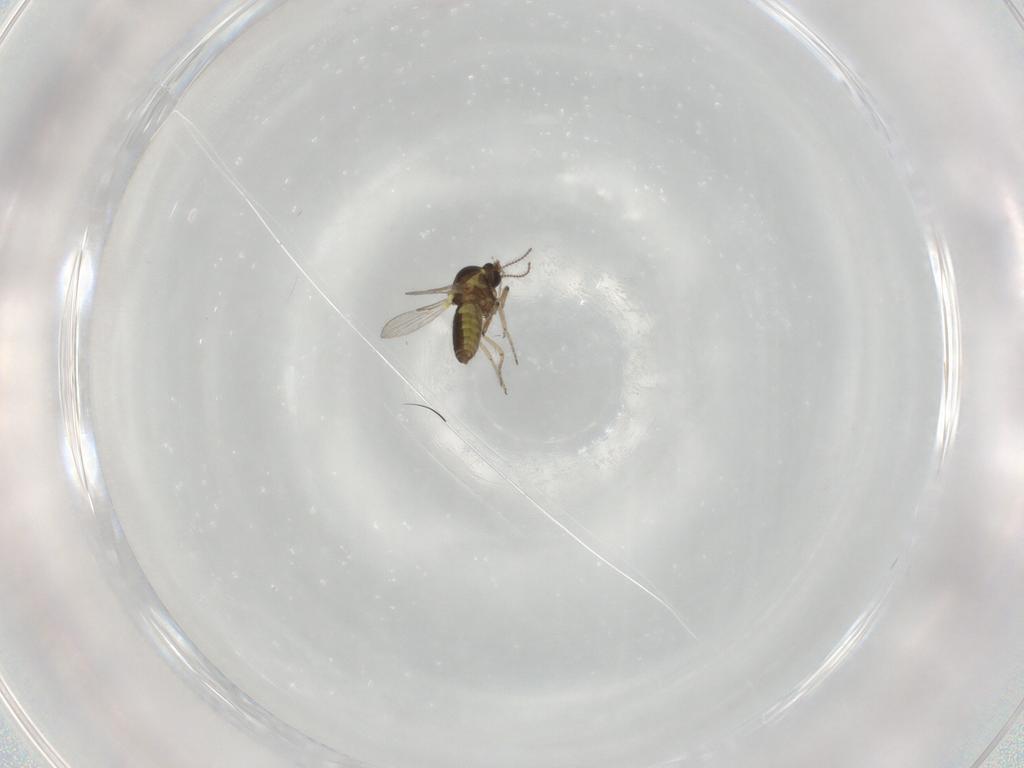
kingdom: Animalia
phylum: Arthropoda
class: Insecta
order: Diptera
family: Ceratopogonidae
